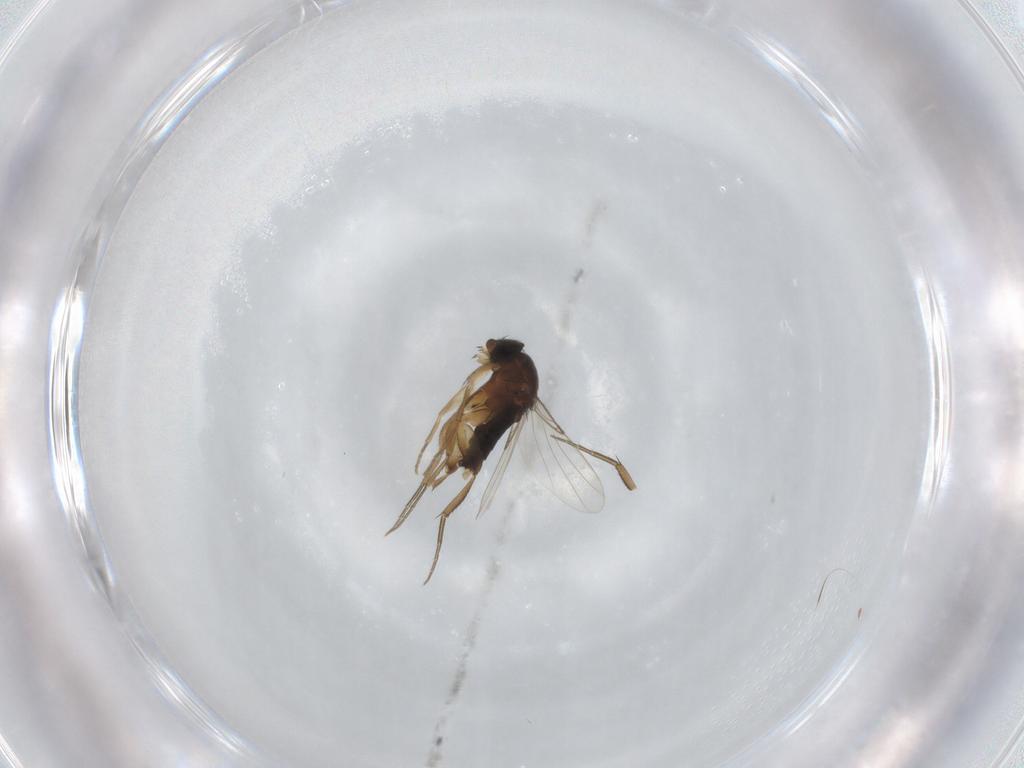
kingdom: Animalia
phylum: Arthropoda
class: Insecta
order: Diptera
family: Phoridae
